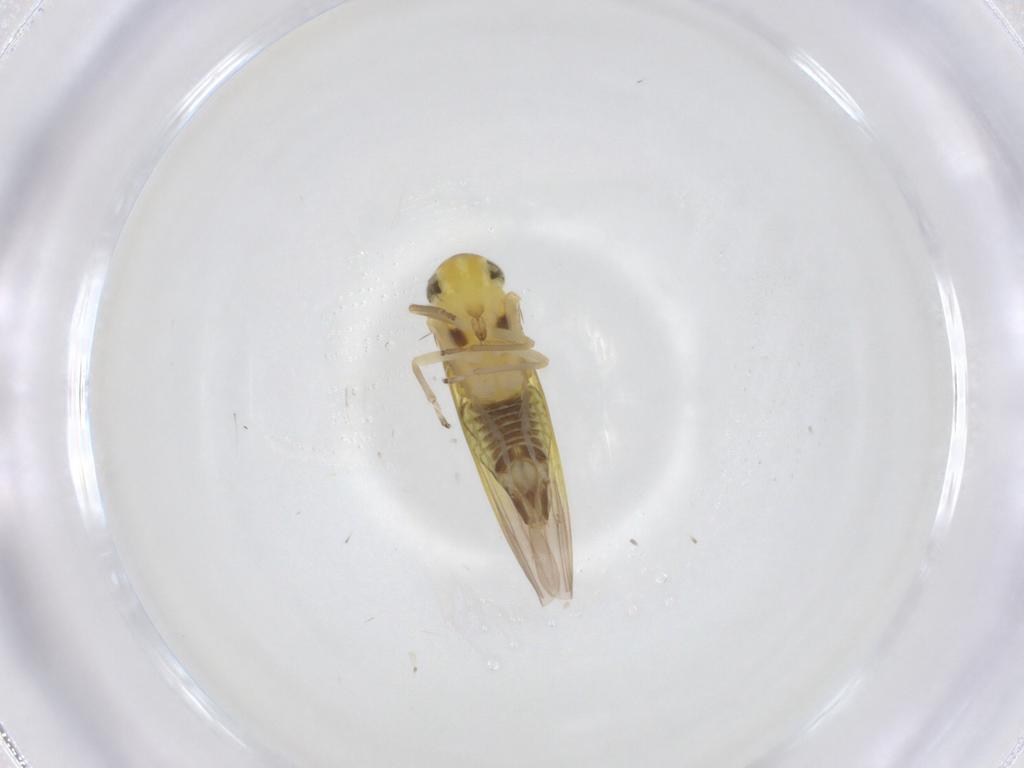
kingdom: Animalia
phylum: Arthropoda
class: Insecta
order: Hemiptera
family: Cicadellidae
